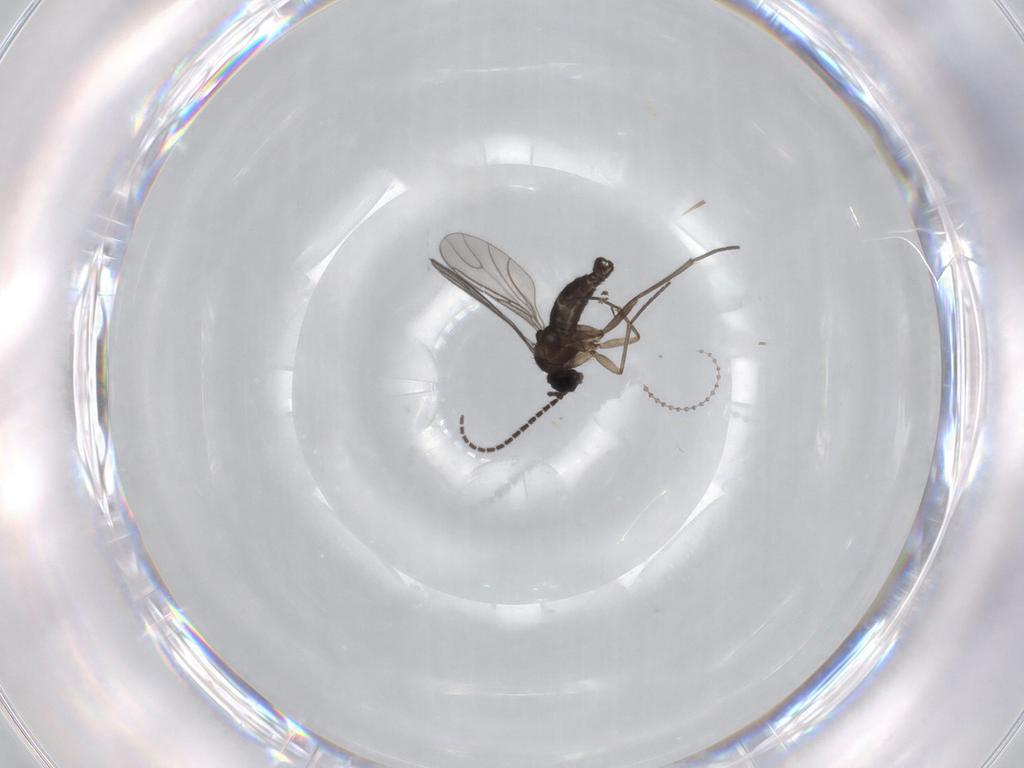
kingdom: Animalia
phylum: Arthropoda
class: Insecta
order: Diptera
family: Sciaridae
